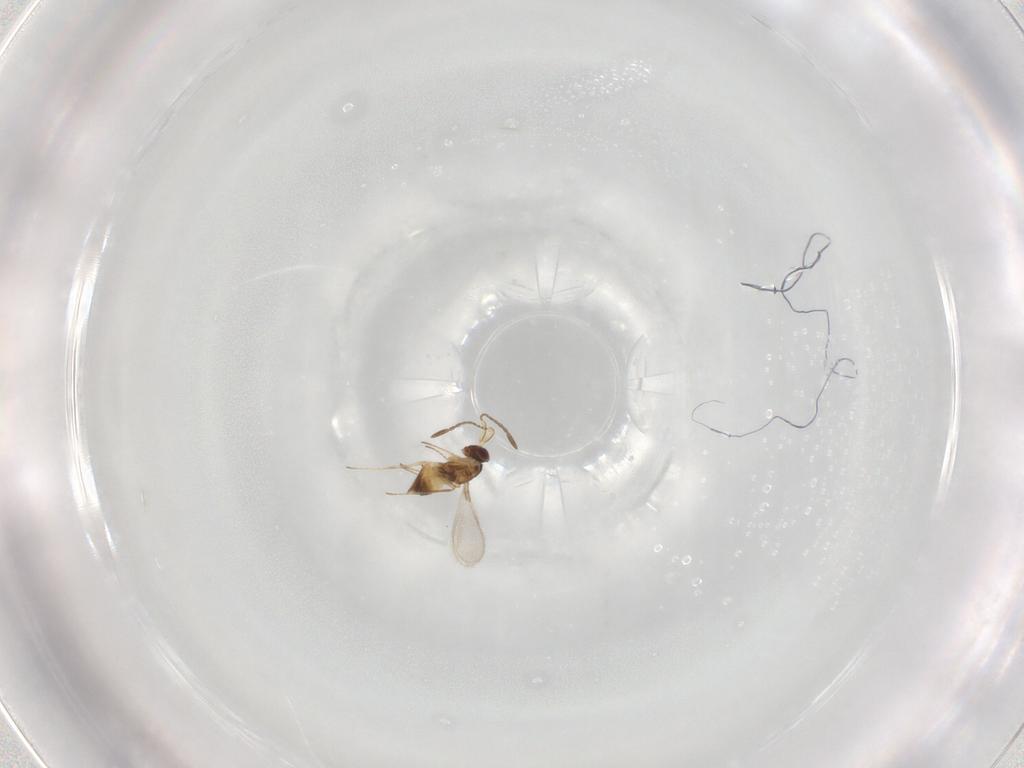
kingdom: Animalia
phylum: Arthropoda
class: Insecta
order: Hymenoptera
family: Mymaridae
